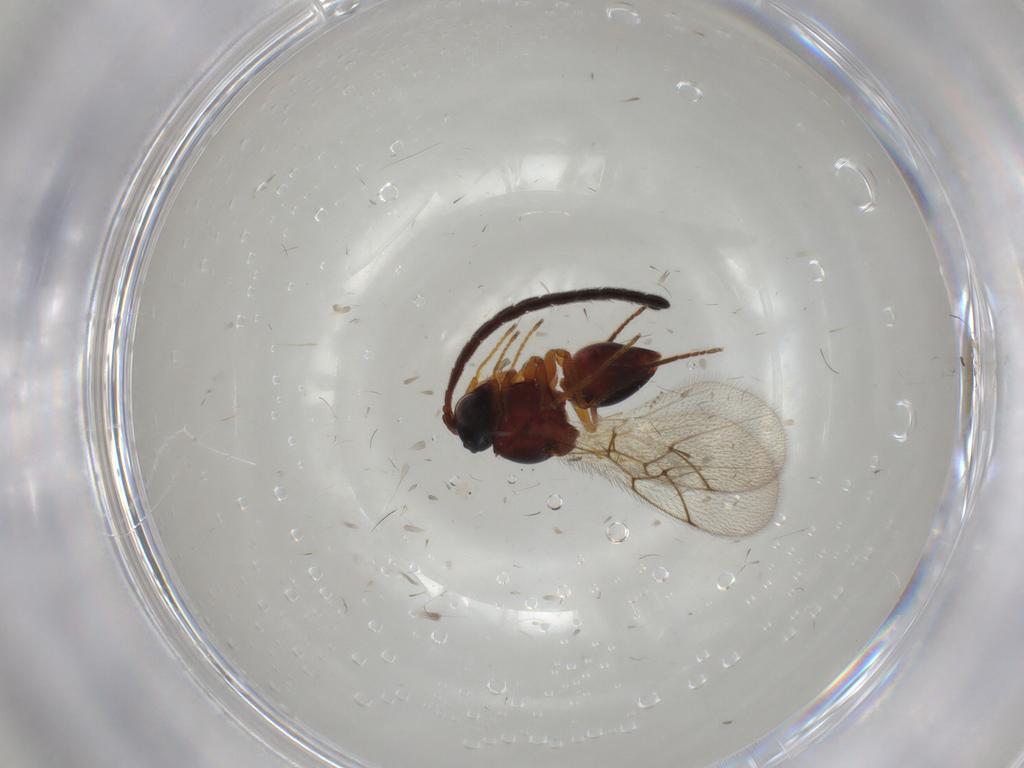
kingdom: Animalia
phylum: Arthropoda
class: Insecta
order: Hymenoptera
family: Figitidae
